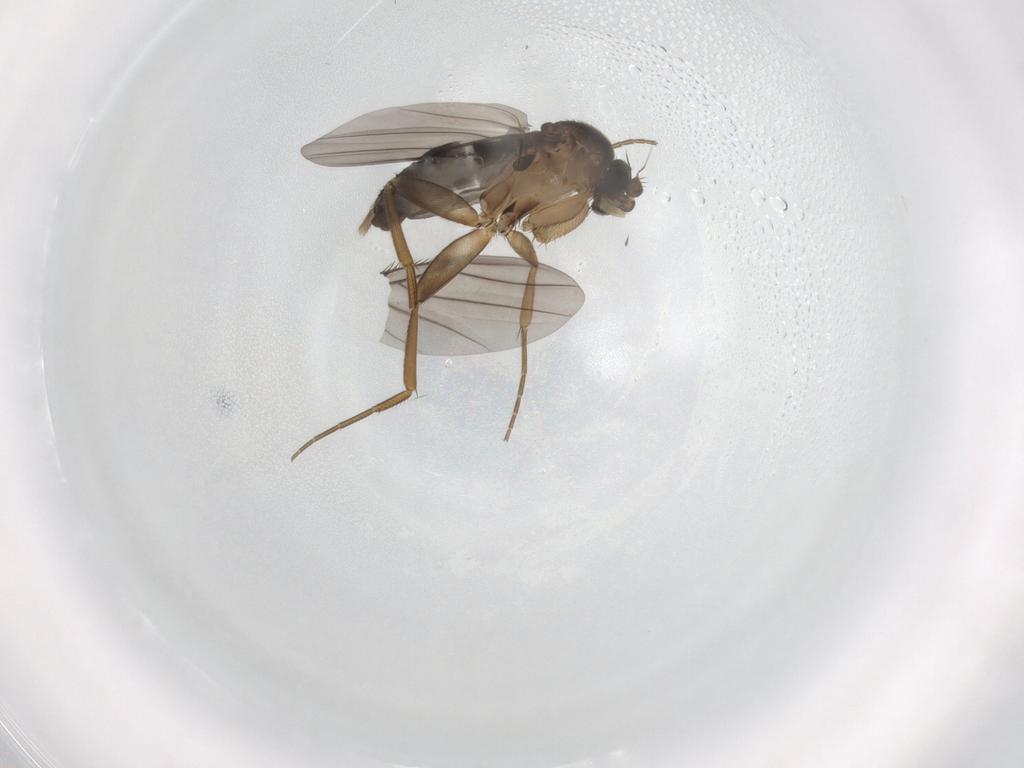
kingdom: Animalia
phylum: Arthropoda
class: Insecta
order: Diptera
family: Phoridae
